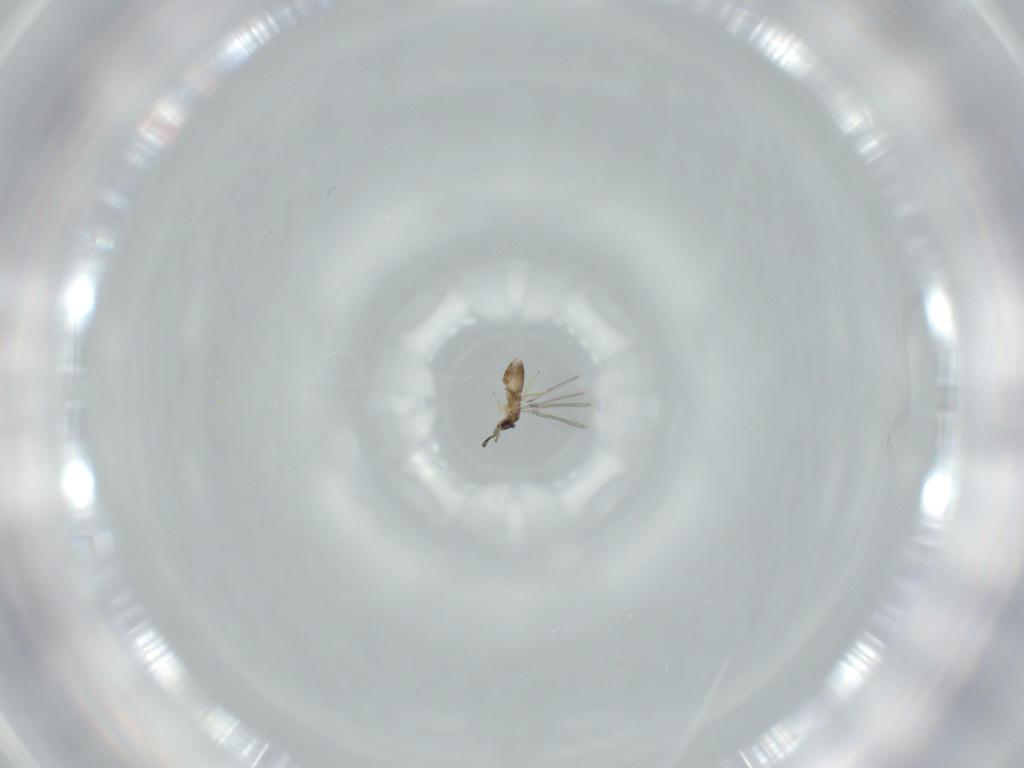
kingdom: Animalia
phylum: Arthropoda
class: Insecta
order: Hymenoptera
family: Mymaridae
